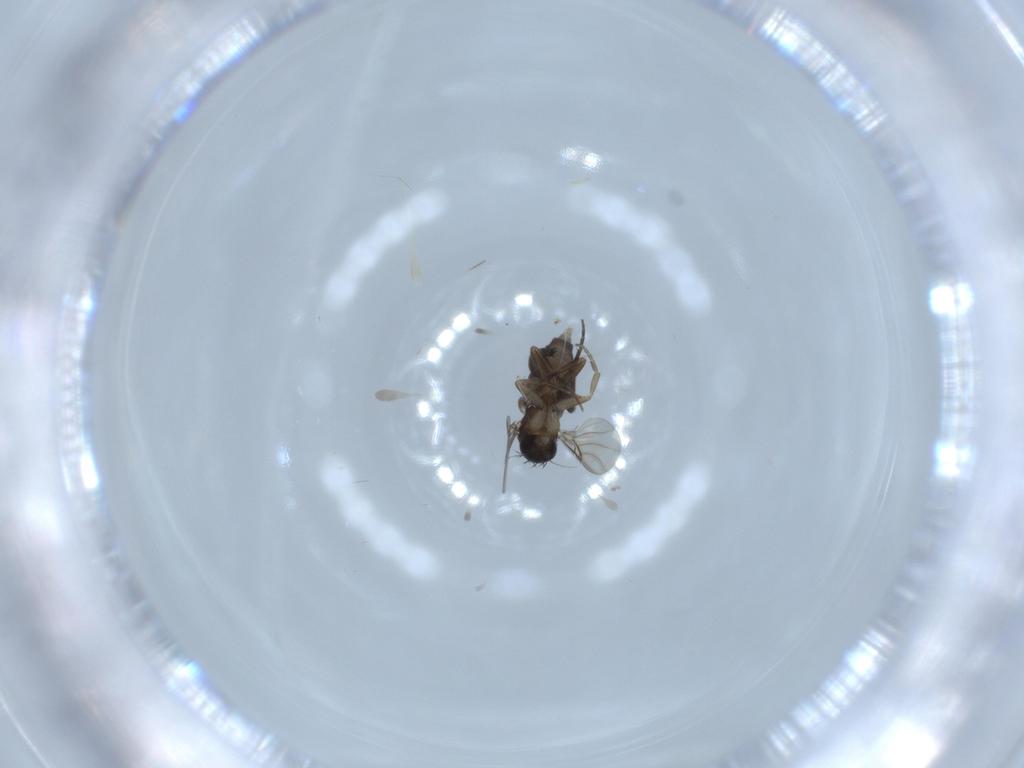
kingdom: Animalia
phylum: Arthropoda
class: Insecta
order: Diptera
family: Phoridae
